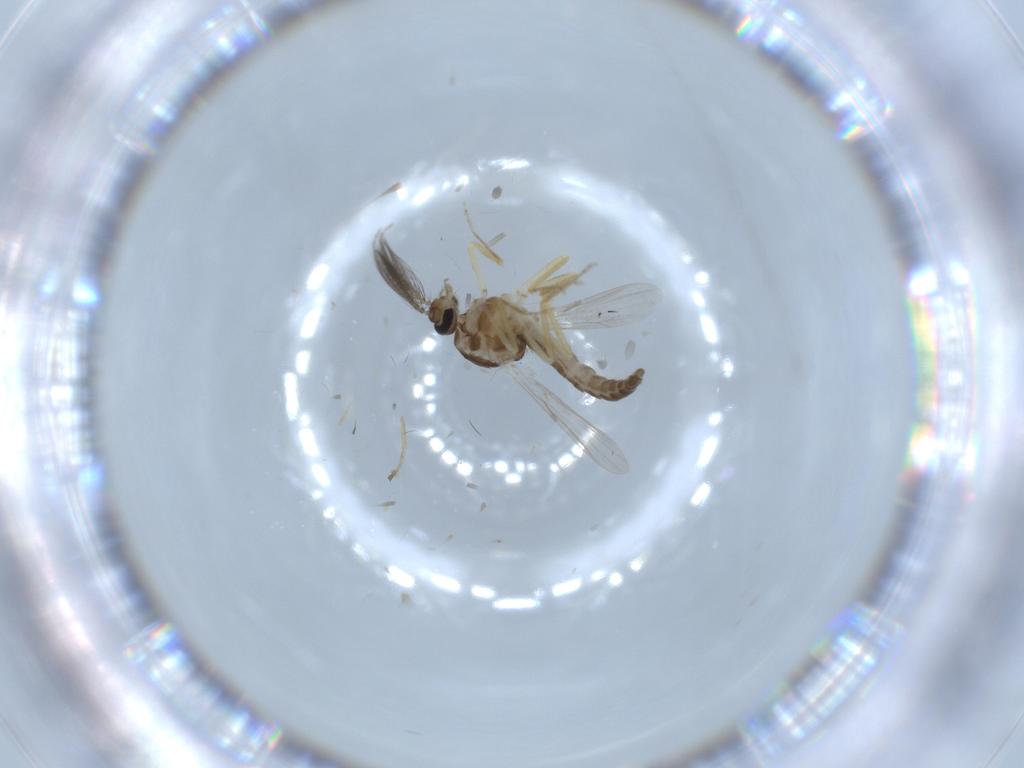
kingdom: Animalia
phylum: Arthropoda
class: Insecta
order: Diptera
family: Ceratopogonidae
